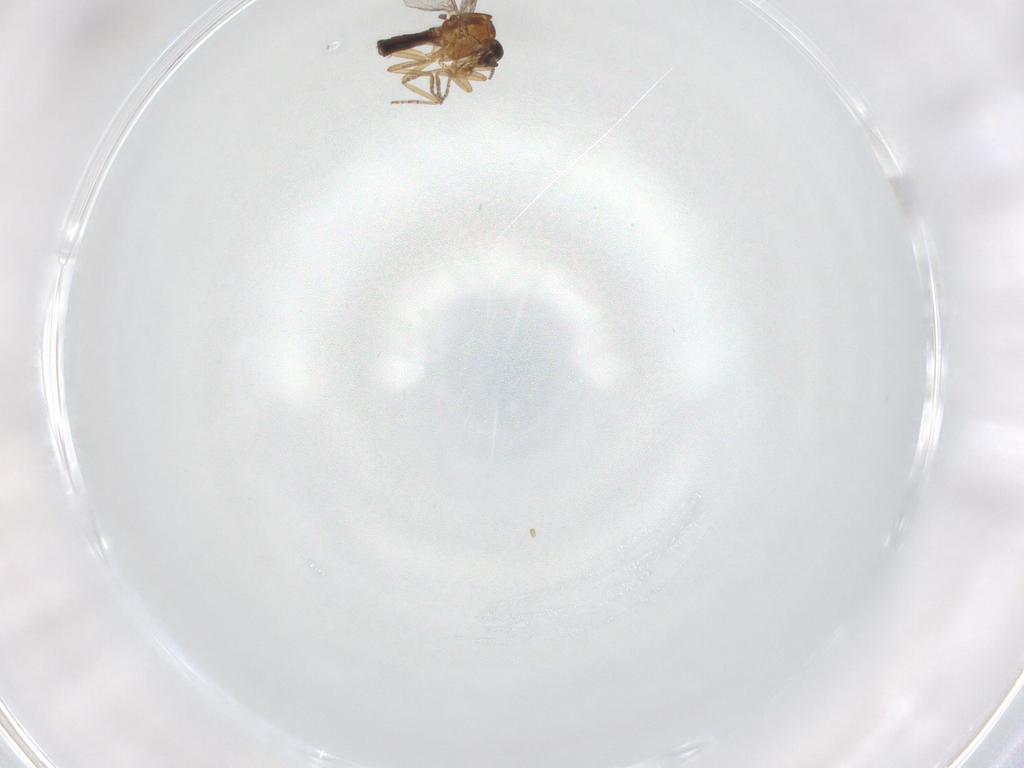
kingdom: Animalia
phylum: Arthropoda
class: Insecta
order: Diptera
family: Ceratopogonidae
